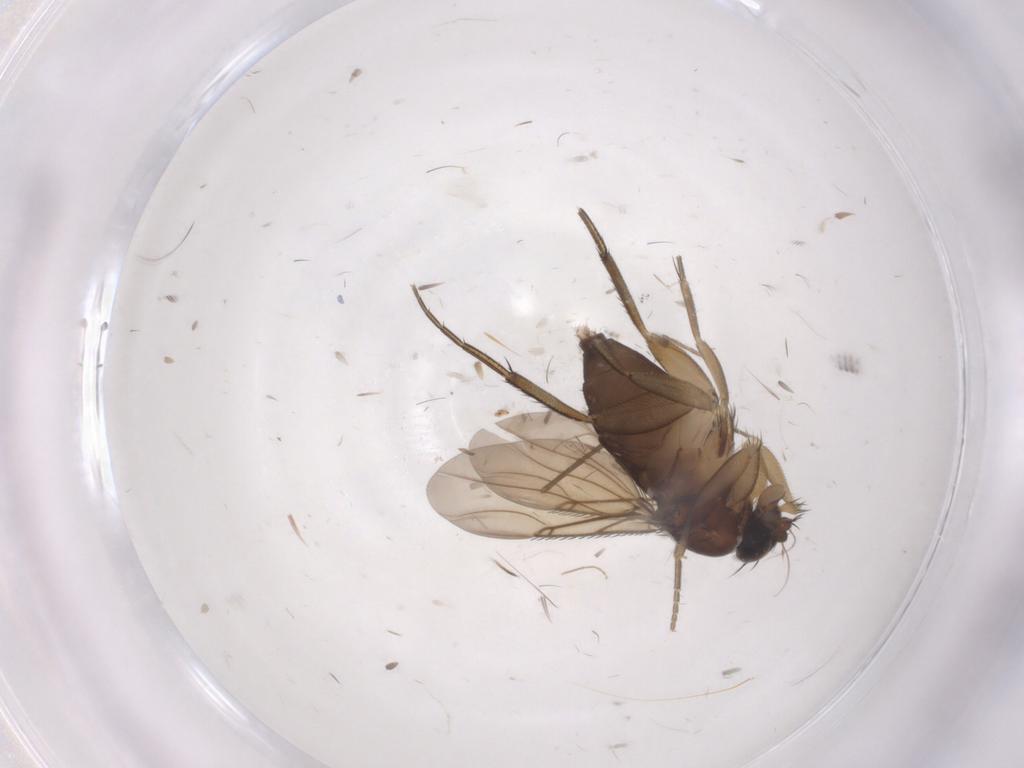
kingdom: Animalia
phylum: Arthropoda
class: Insecta
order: Diptera
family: Phoridae
